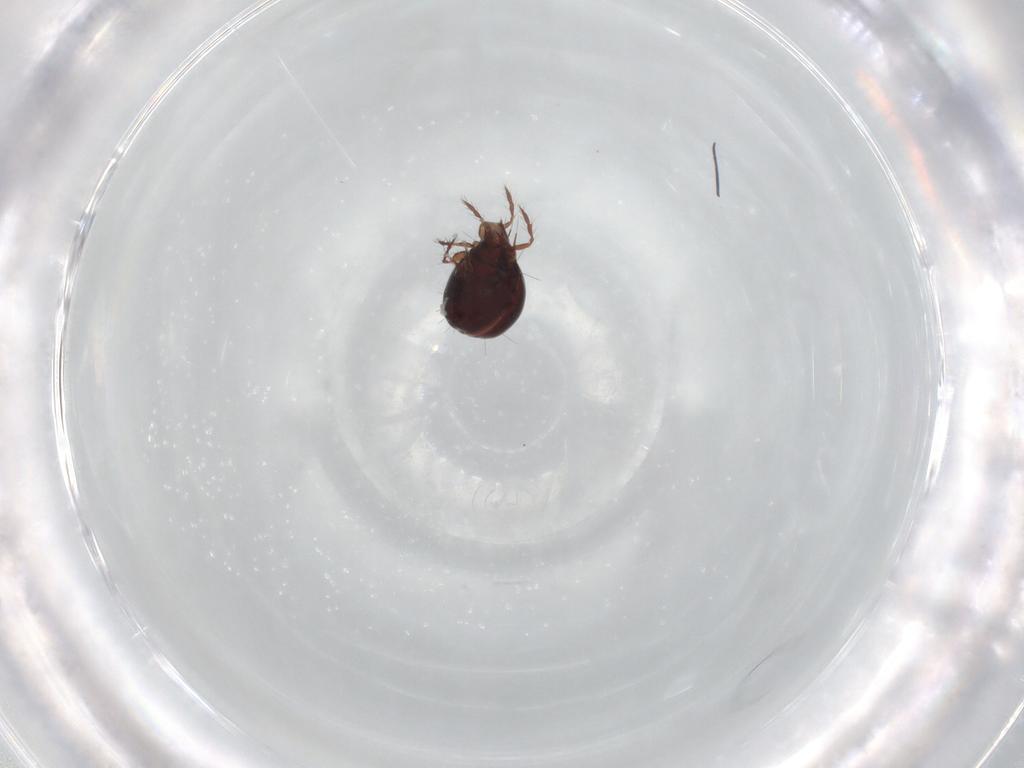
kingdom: Animalia
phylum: Arthropoda
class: Arachnida
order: Sarcoptiformes
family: Ceratoppiidae
